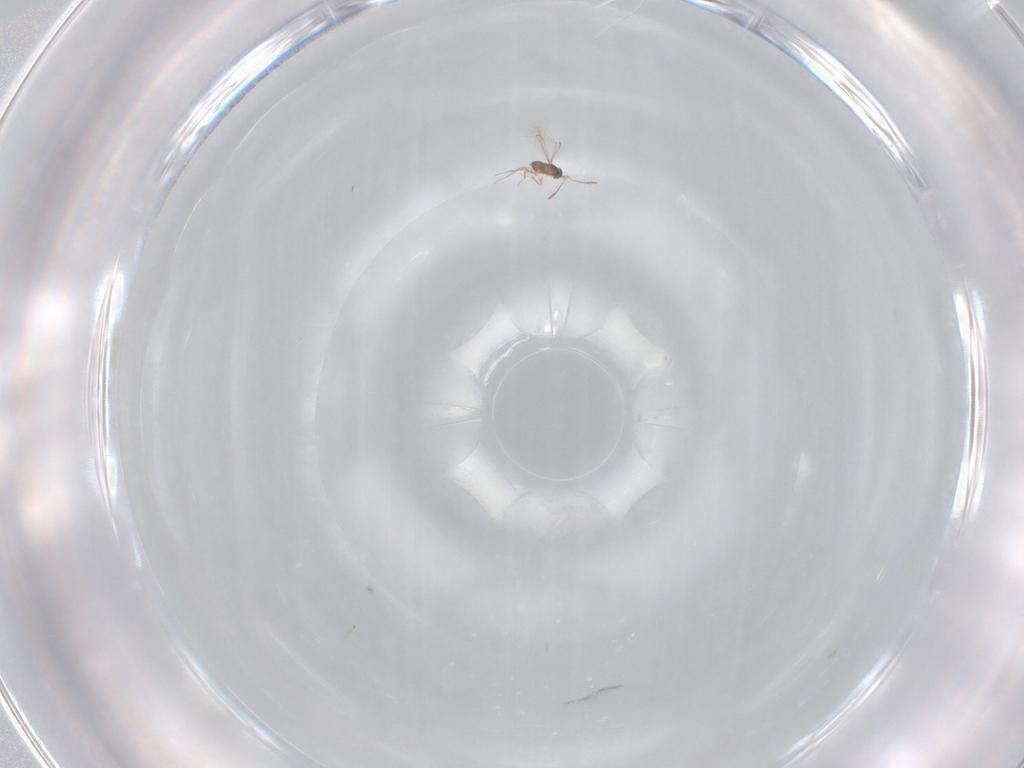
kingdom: Animalia
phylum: Arthropoda
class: Insecta
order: Hymenoptera
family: Mymaridae
